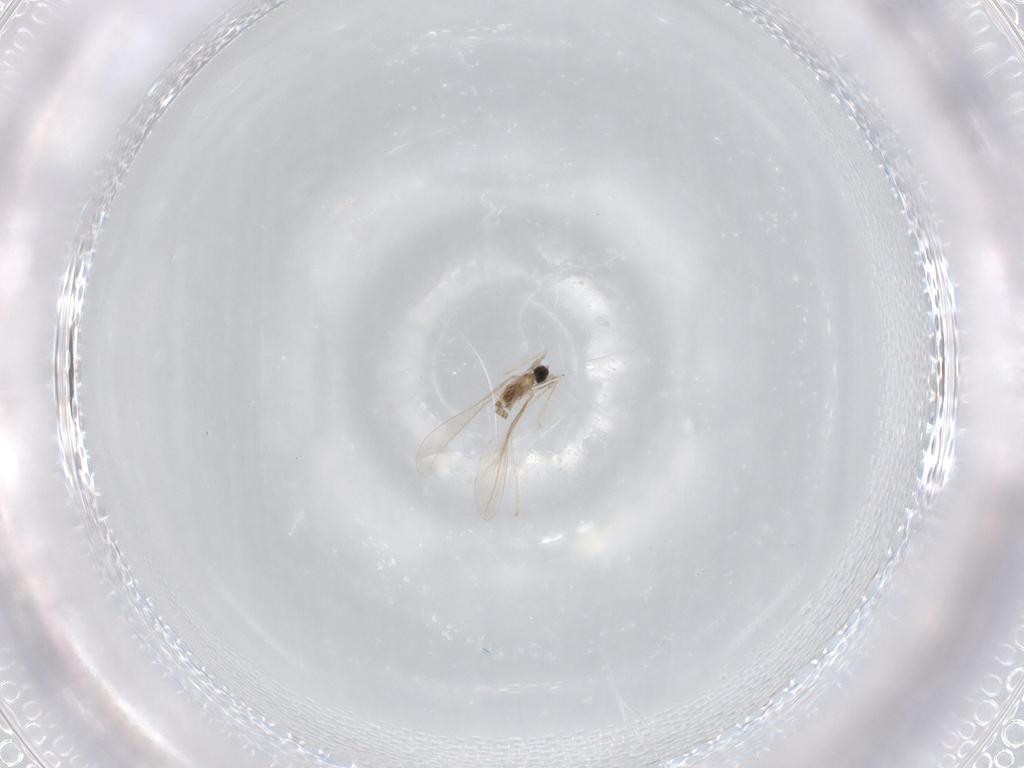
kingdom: Animalia
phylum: Arthropoda
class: Insecta
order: Diptera
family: Cecidomyiidae
